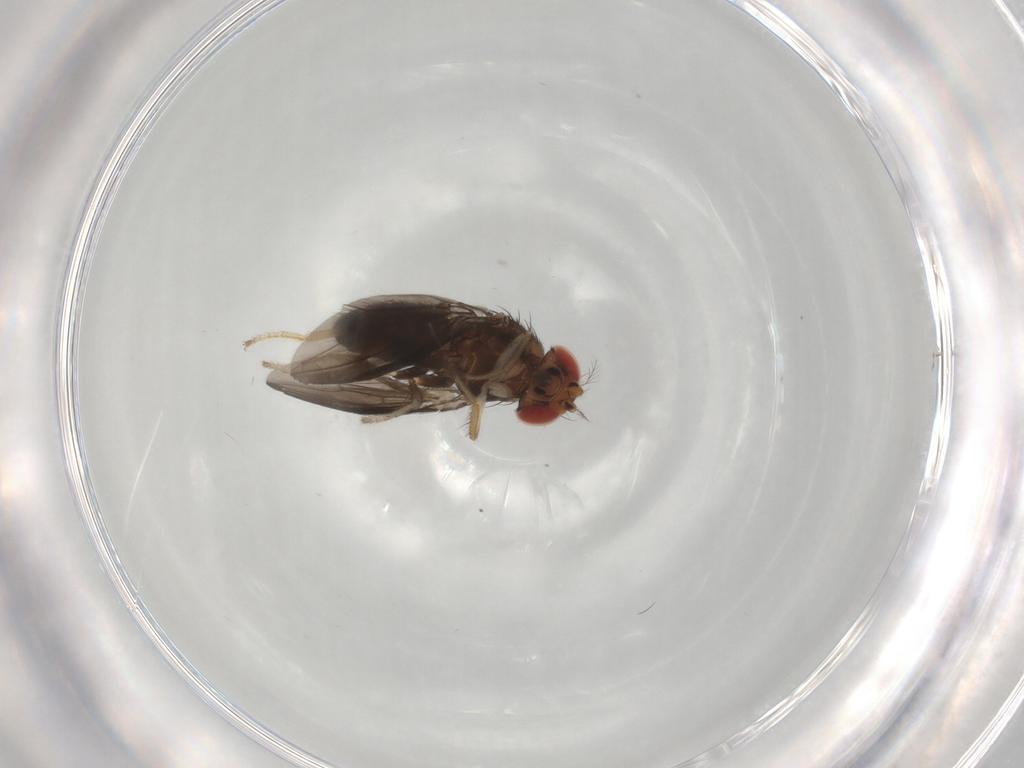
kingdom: Animalia
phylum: Arthropoda
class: Insecta
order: Diptera
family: Drosophilidae
